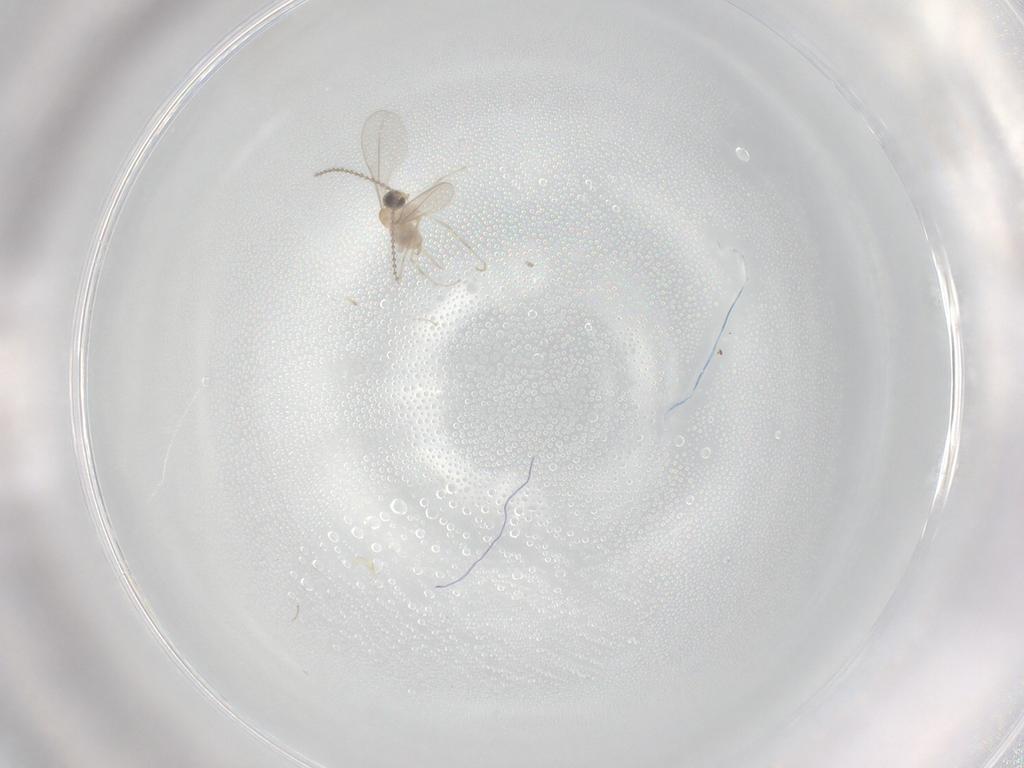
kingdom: Animalia
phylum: Arthropoda
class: Insecta
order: Diptera
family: Cecidomyiidae
